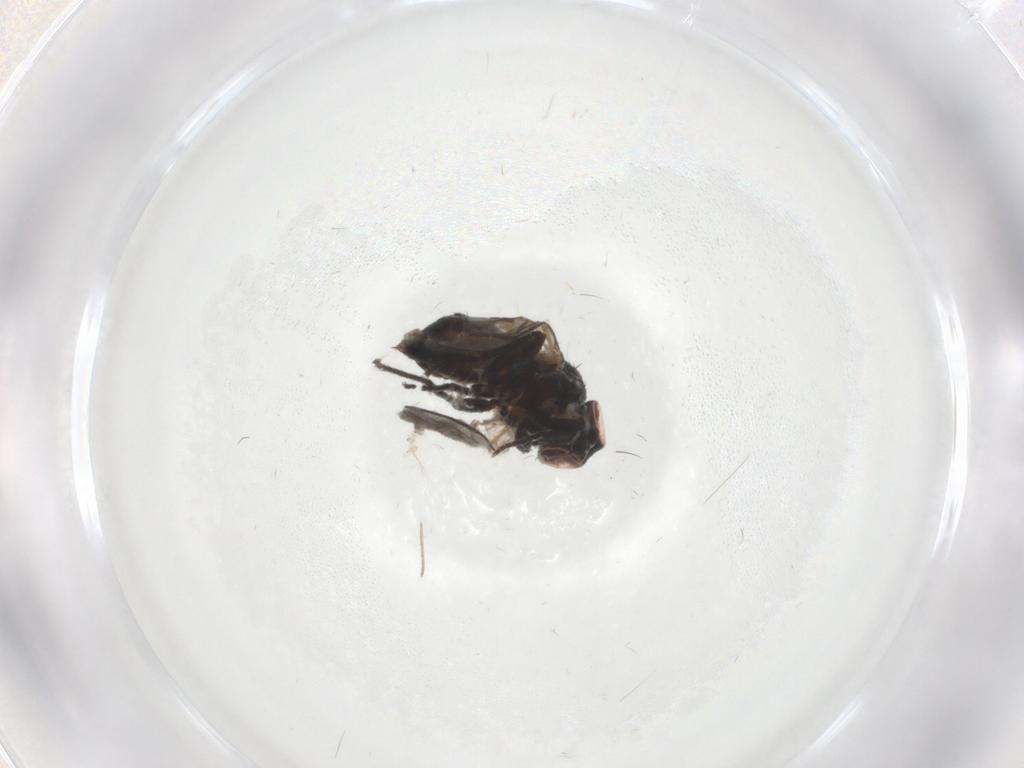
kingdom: Animalia
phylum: Arthropoda
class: Insecta
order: Diptera
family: Chironomidae
